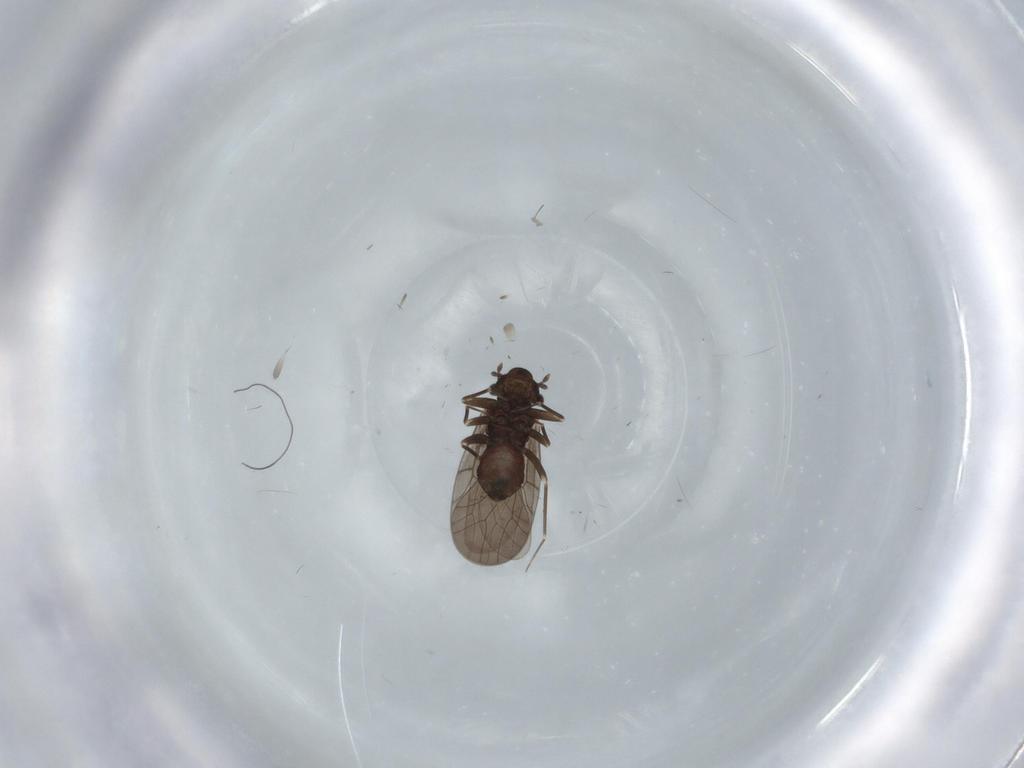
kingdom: Animalia
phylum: Arthropoda
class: Insecta
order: Psocodea
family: Lepidopsocidae
